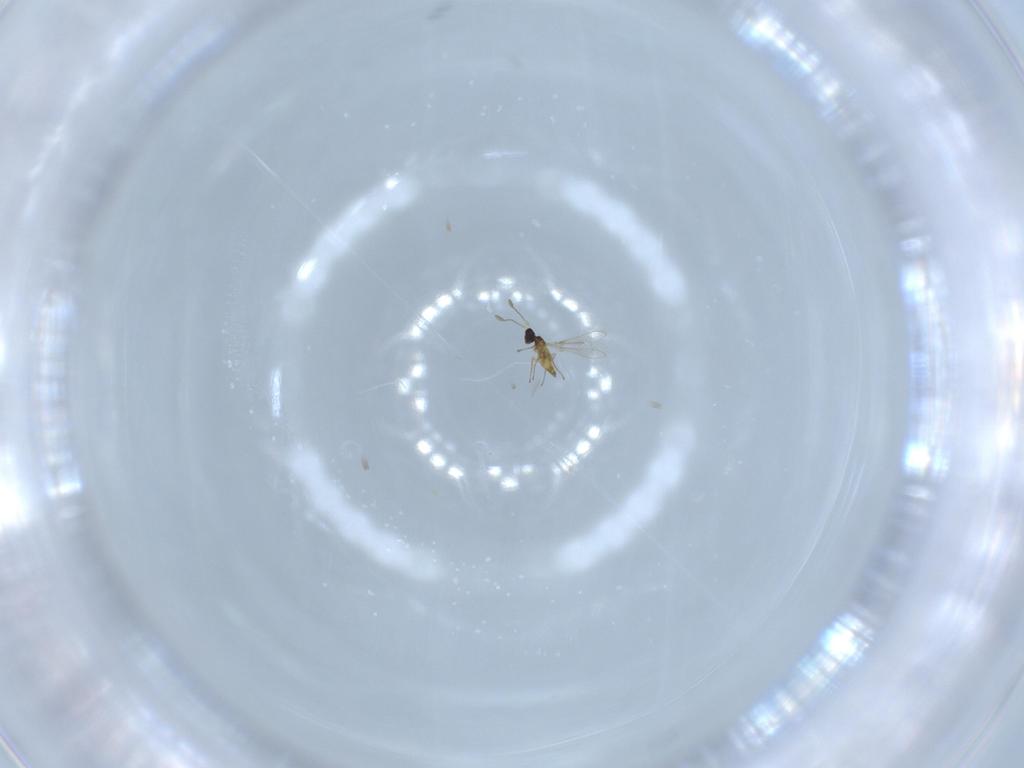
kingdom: Animalia
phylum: Arthropoda
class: Insecta
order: Hymenoptera
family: Mymaridae
